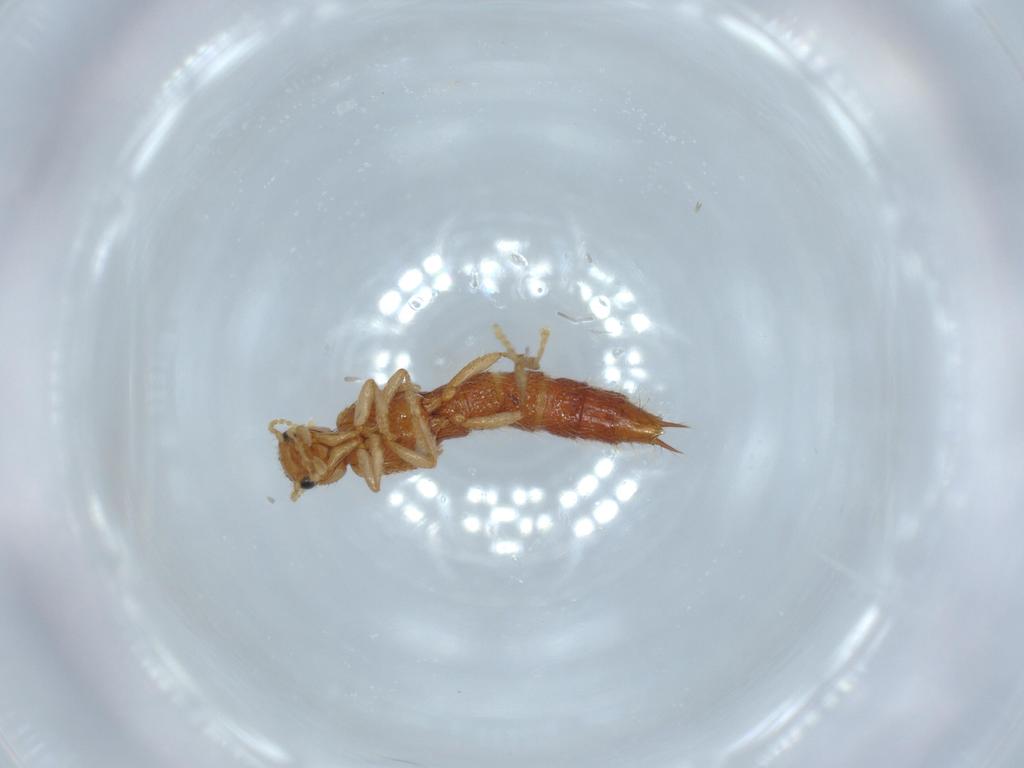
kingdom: Animalia
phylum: Arthropoda
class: Insecta
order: Coleoptera
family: Staphylinidae
